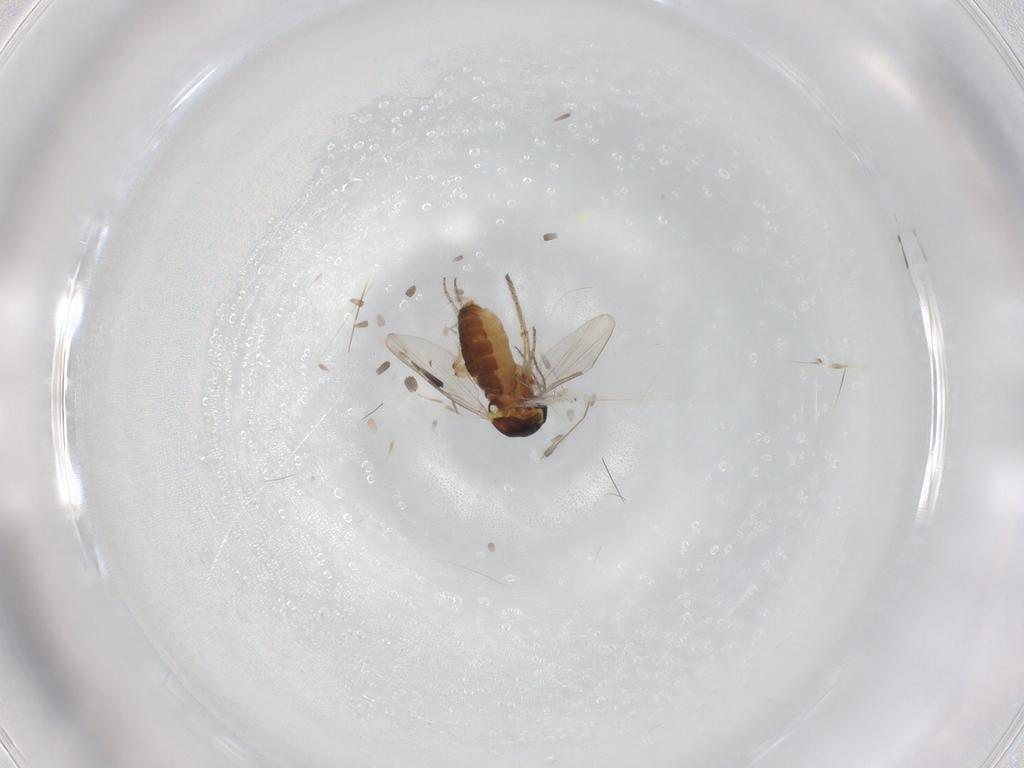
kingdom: Animalia
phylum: Arthropoda
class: Insecta
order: Diptera
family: Ceratopogonidae
